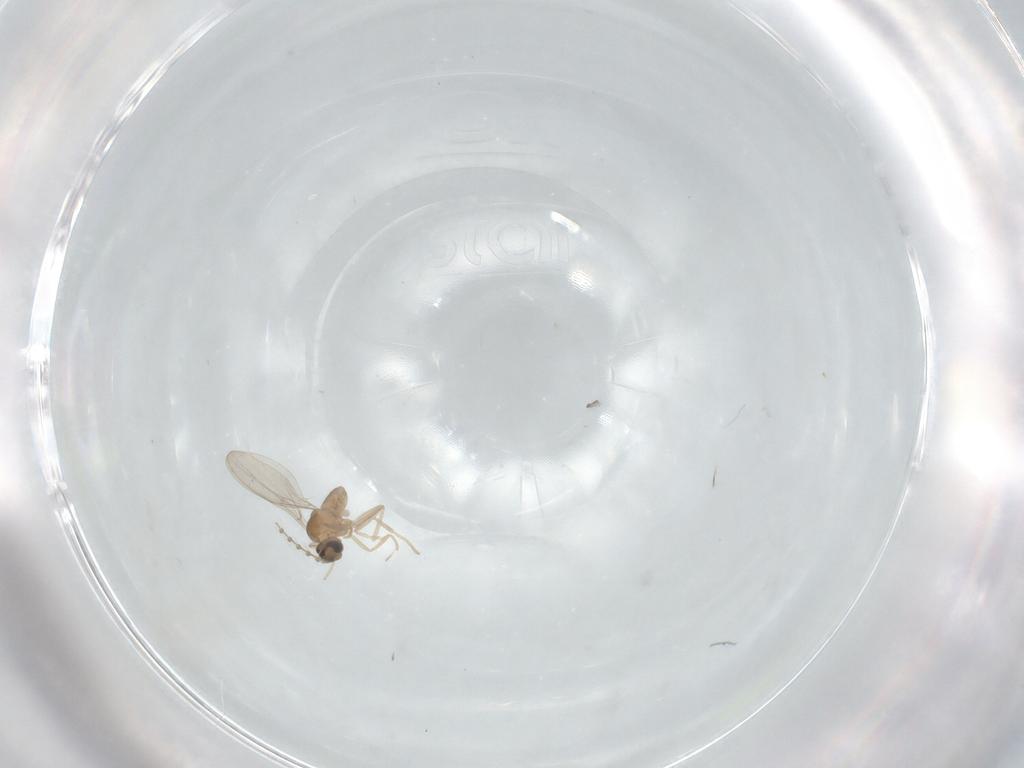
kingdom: Animalia
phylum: Arthropoda
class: Insecta
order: Diptera
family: Cecidomyiidae
